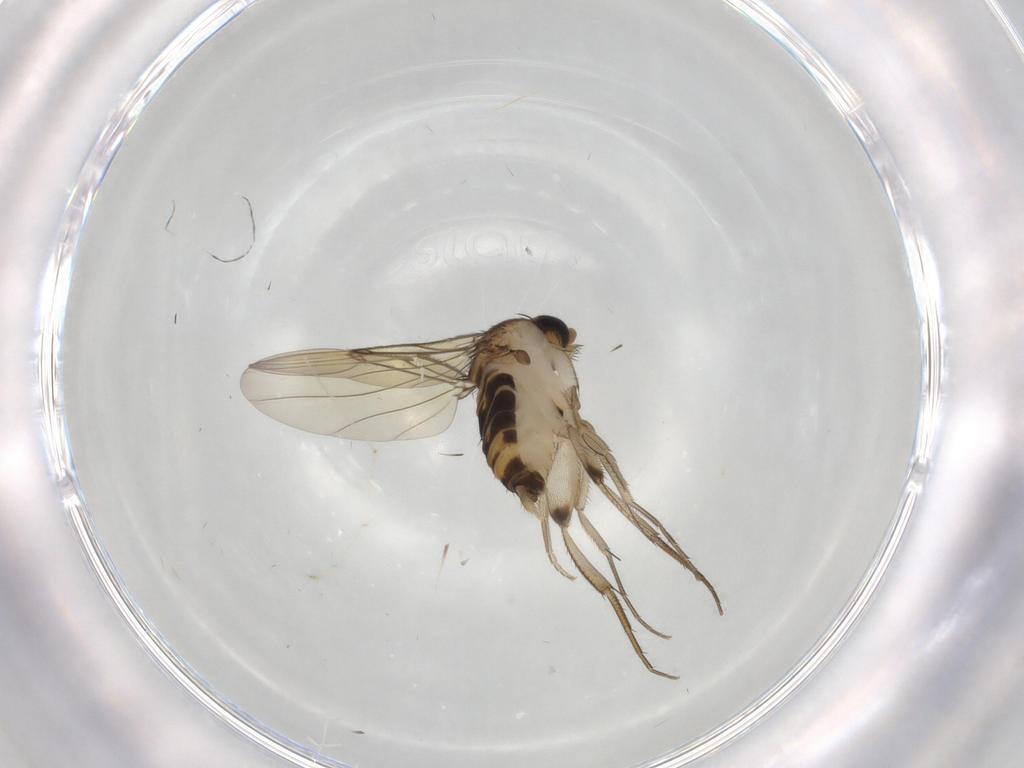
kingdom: Animalia
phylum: Arthropoda
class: Insecta
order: Diptera
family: Phoridae
